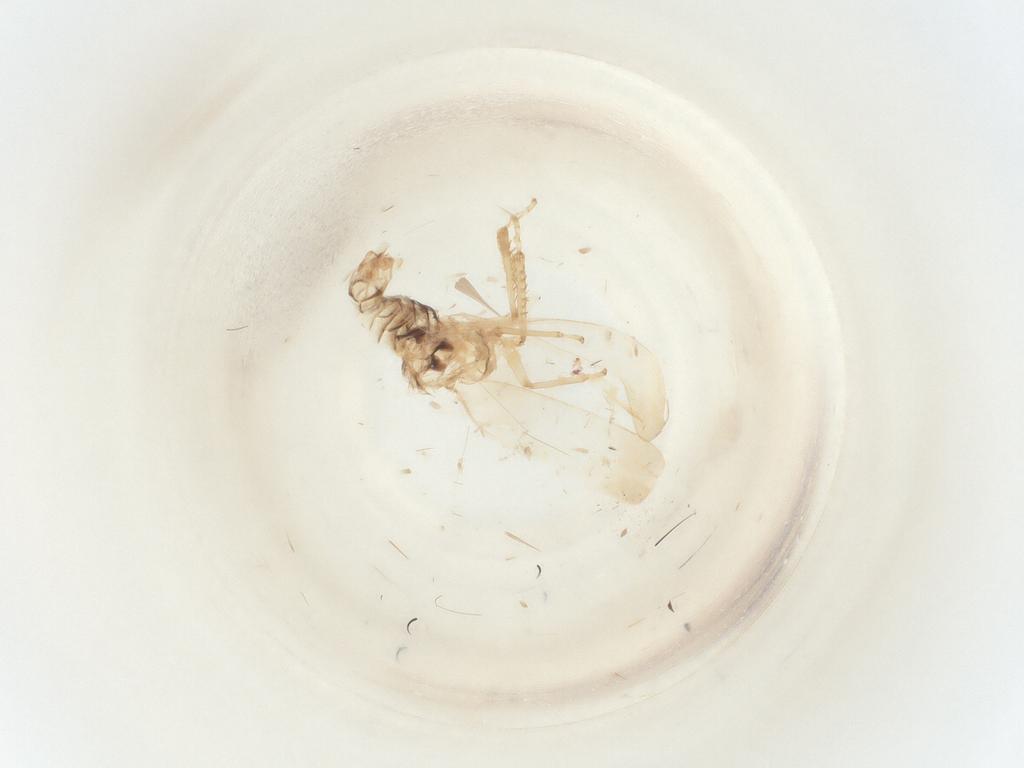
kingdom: Animalia
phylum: Arthropoda
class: Insecta
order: Hemiptera
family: Cicadellidae
